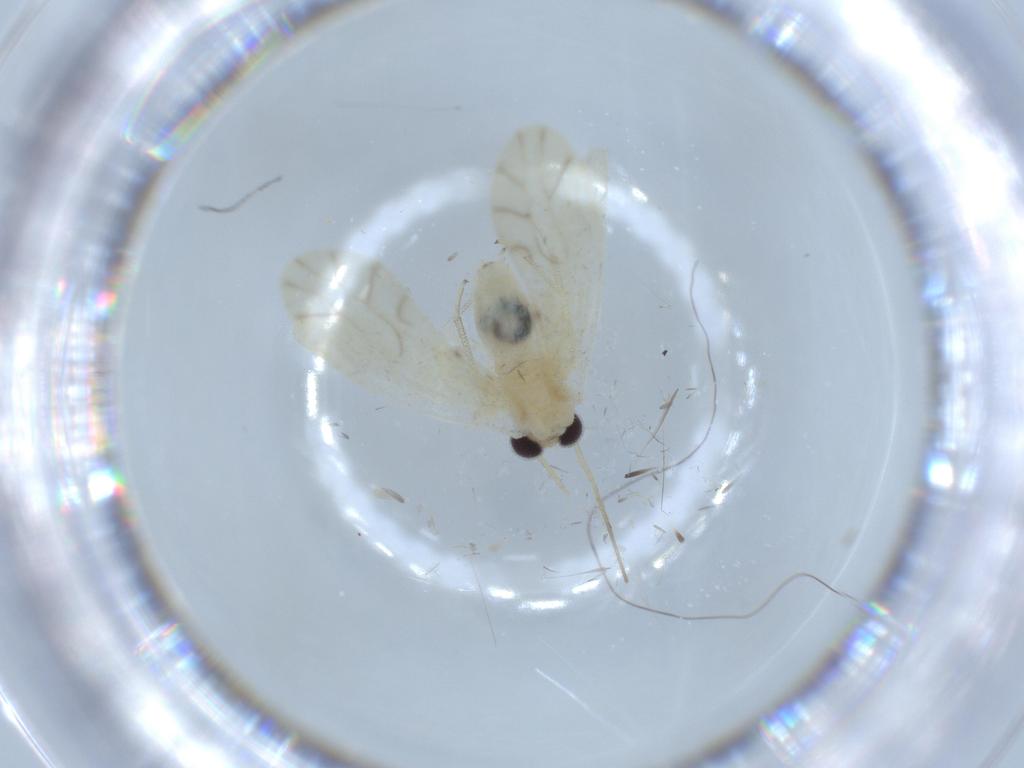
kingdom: Animalia
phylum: Arthropoda
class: Insecta
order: Psocodea
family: Caeciliusidae
